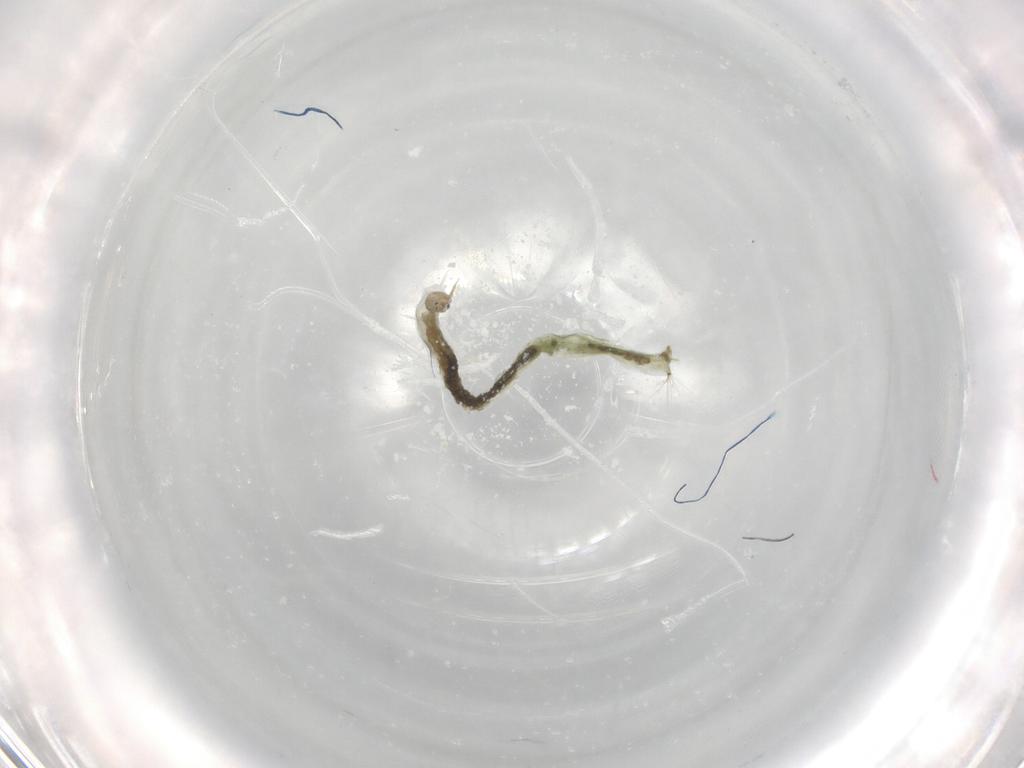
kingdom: Animalia
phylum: Arthropoda
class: Insecta
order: Diptera
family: Chironomidae
